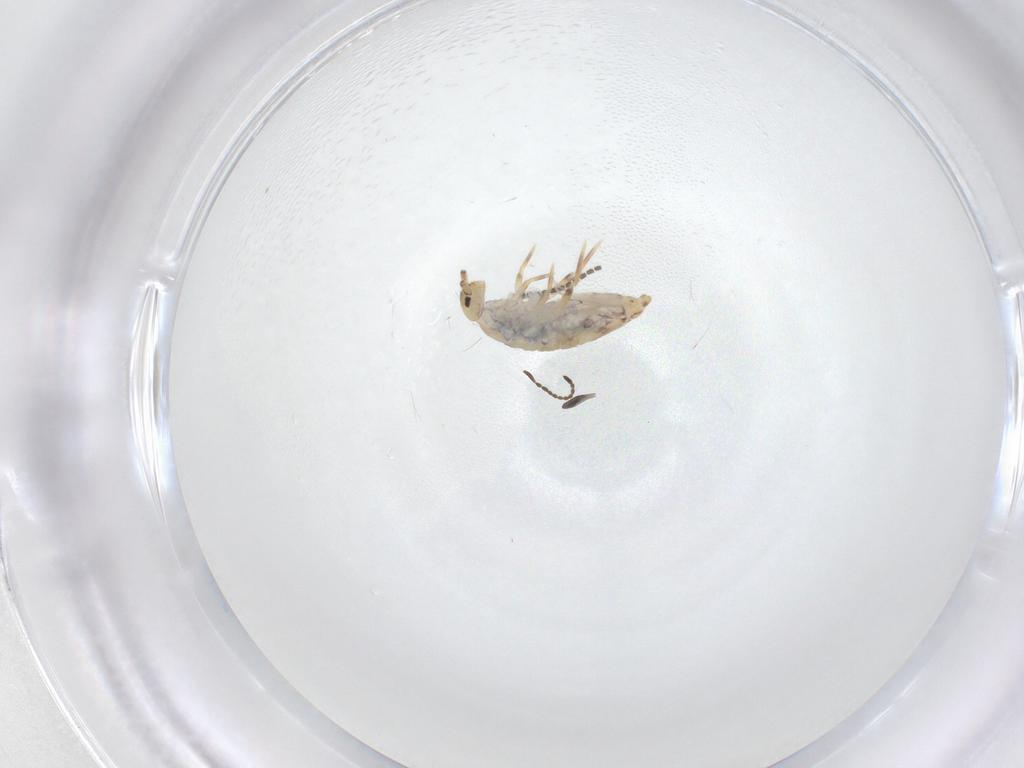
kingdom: Animalia
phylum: Arthropoda
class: Collembola
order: Entomobryomorpha
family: Entomobryidae
